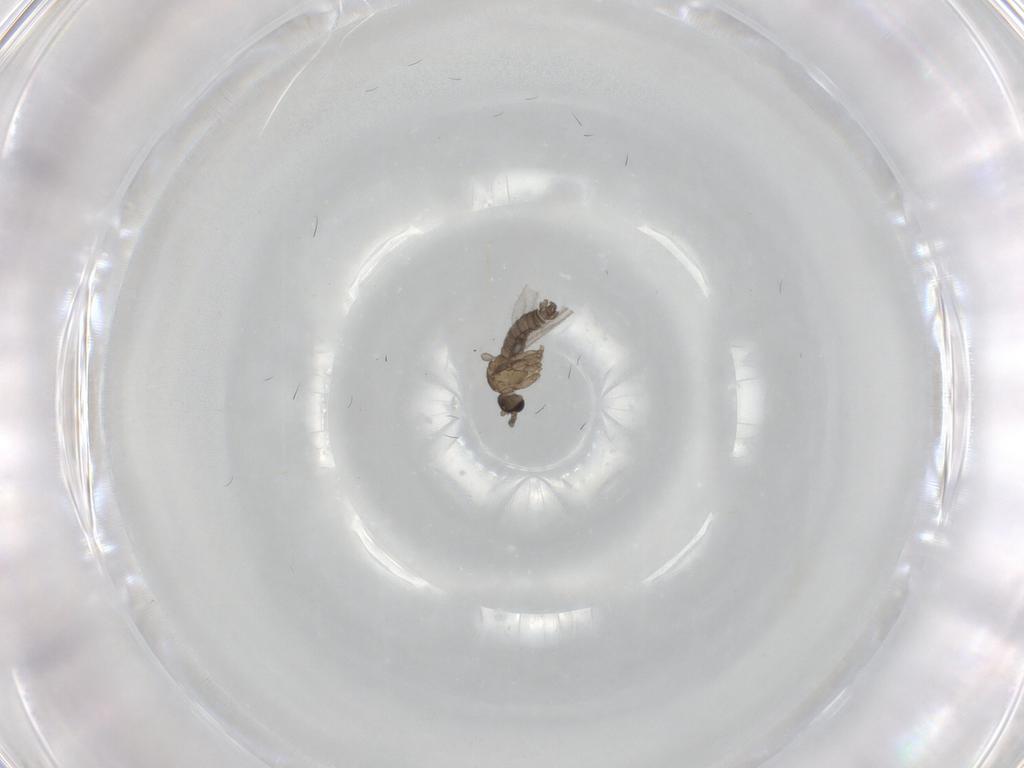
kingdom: Animalia
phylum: Arthropoda
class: Insecta
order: Diptera
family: Sciaridae
